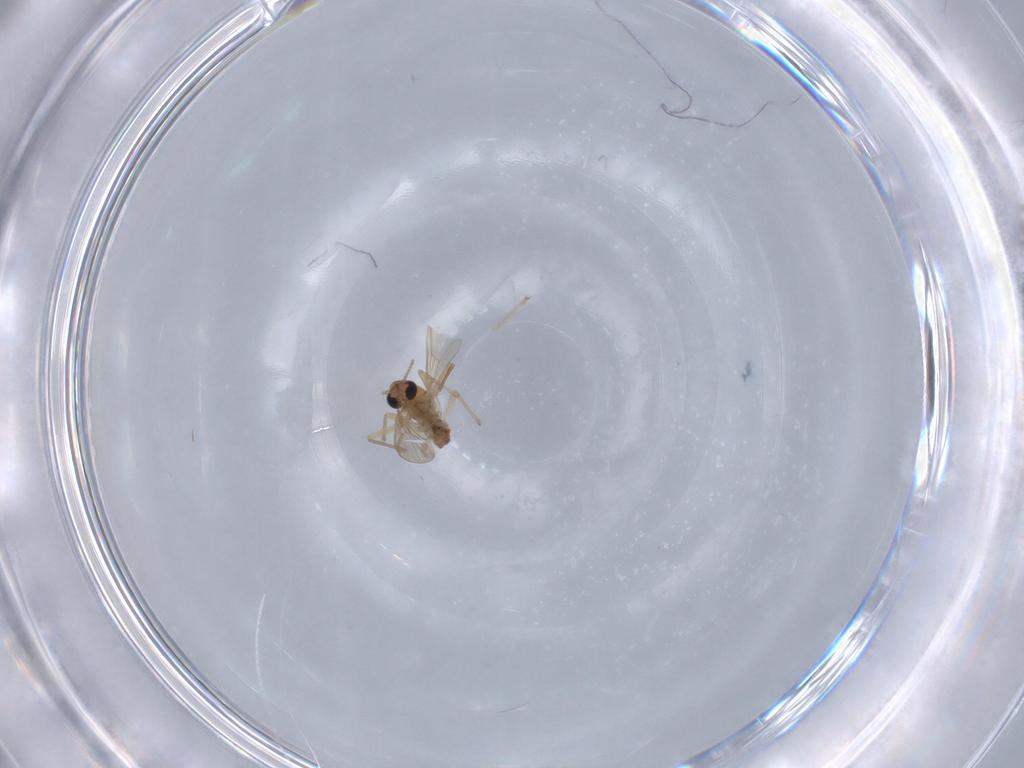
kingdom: Animalia
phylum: Arthropoda
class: Insecta
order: Diptera
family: Chironomidae
